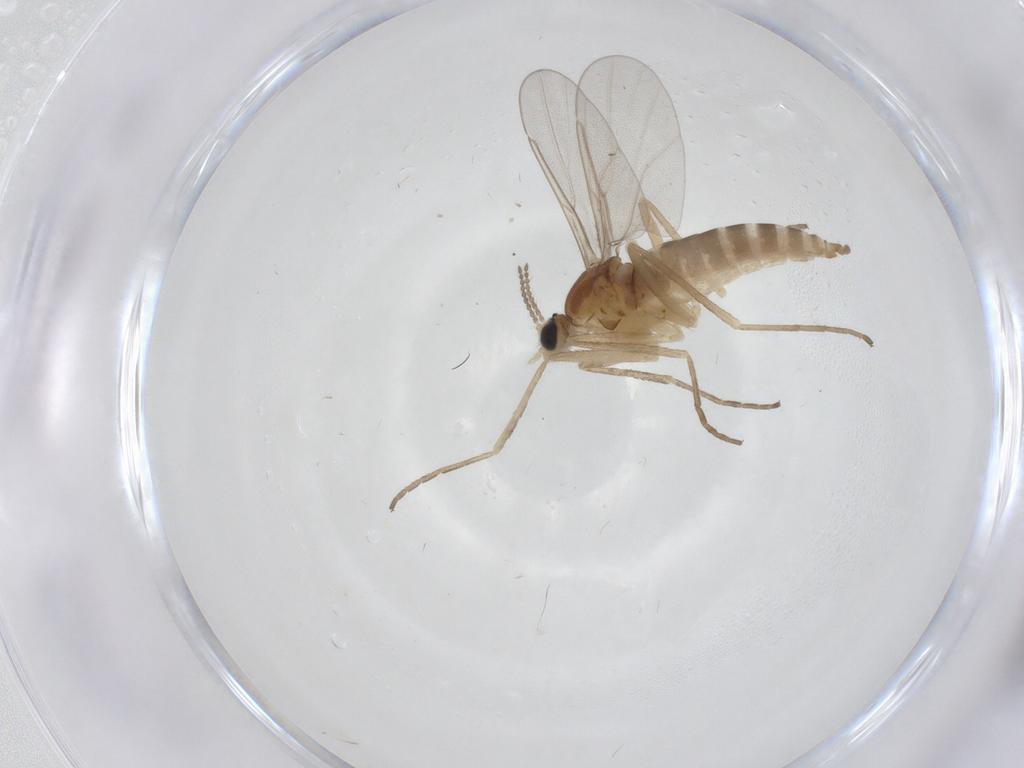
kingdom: Animalia
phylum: Arthropoda
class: Insecta
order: Diptera
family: Cecidomyiidae
